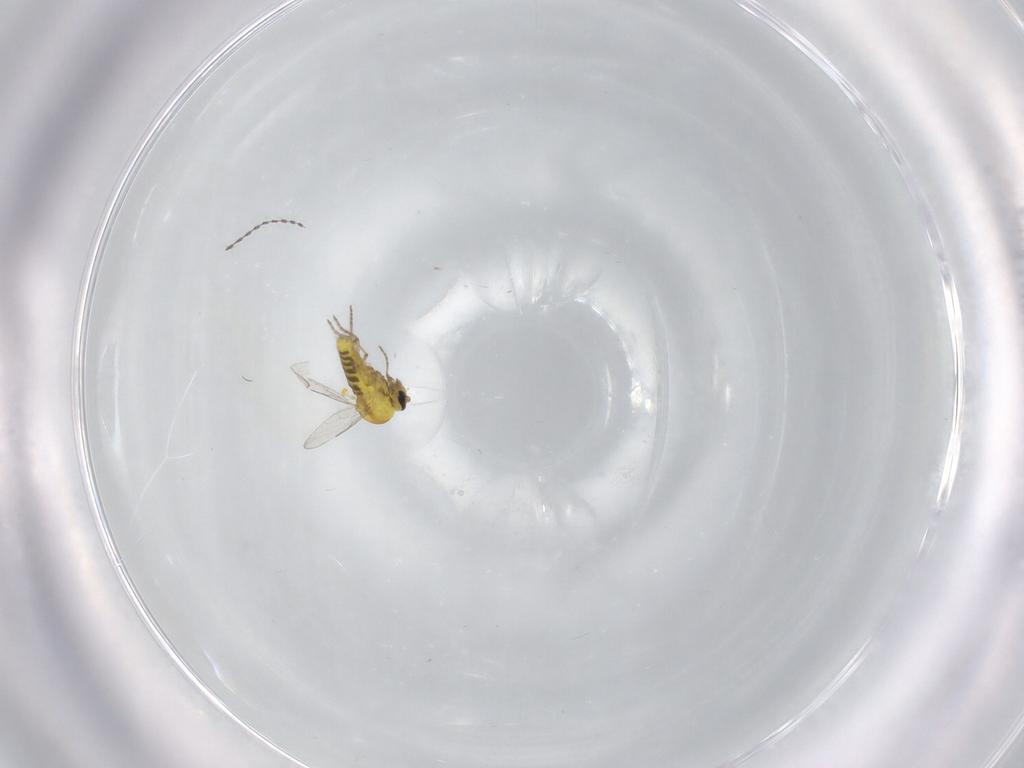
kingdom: Animalia
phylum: Arthropoda
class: Insecta
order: Diptera
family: Ceratopogonidae
